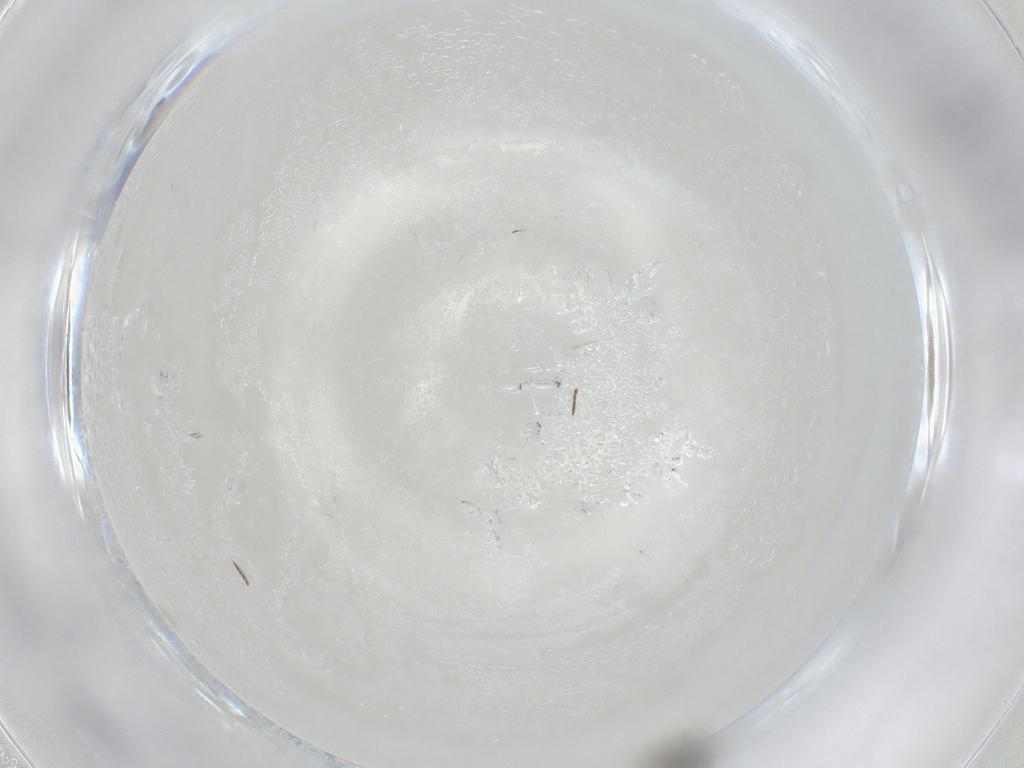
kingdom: Animalia
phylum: Arthropoda
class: Insecta
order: Hymenoptera
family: Eulophidae
